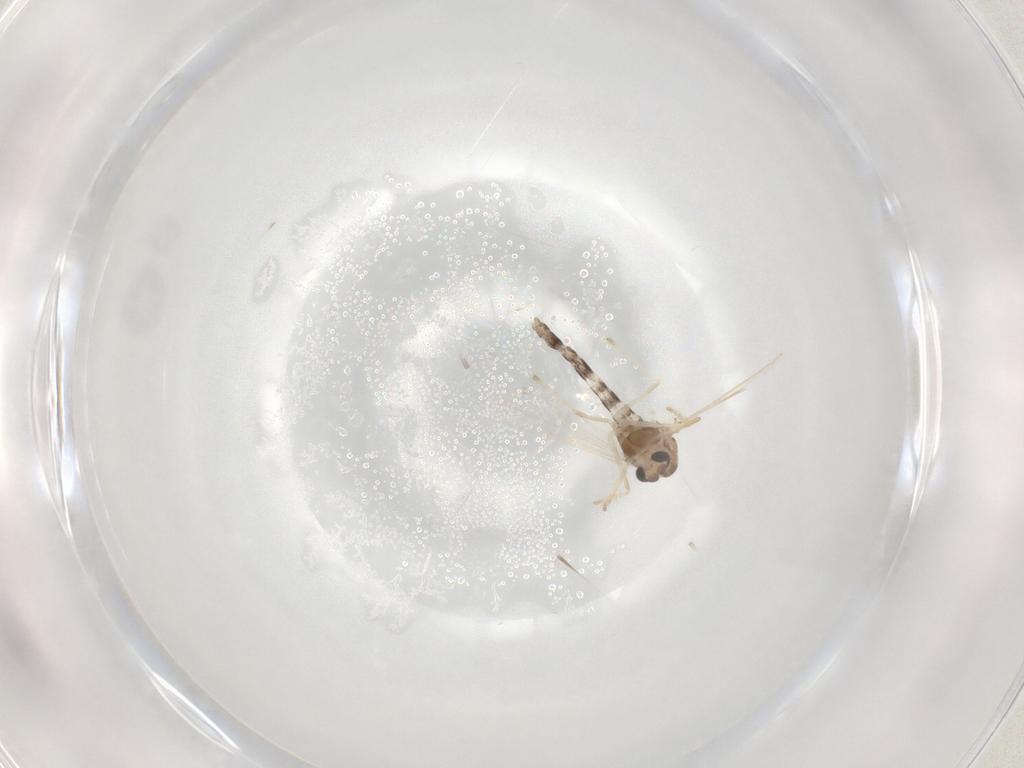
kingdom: Animalia
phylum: Arthropoda
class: Insecta
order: Diptera
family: Chironomidae
